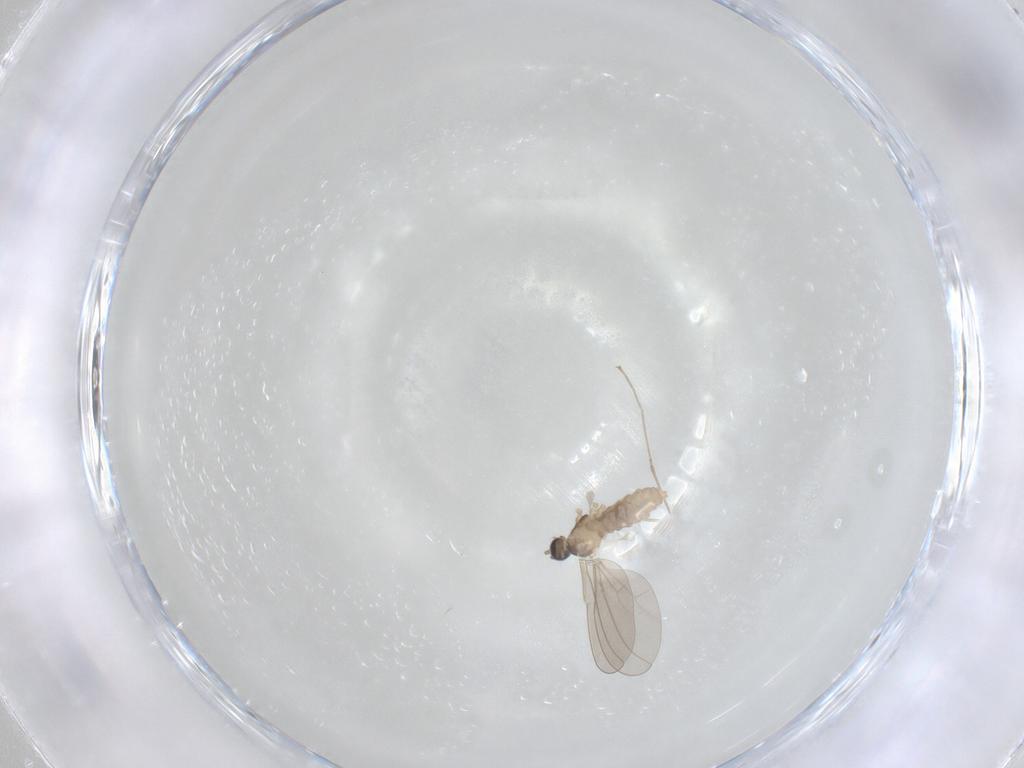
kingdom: Animalia
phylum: Arthropoda
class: Insecta
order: Diptera
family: Cecidomyiidae
